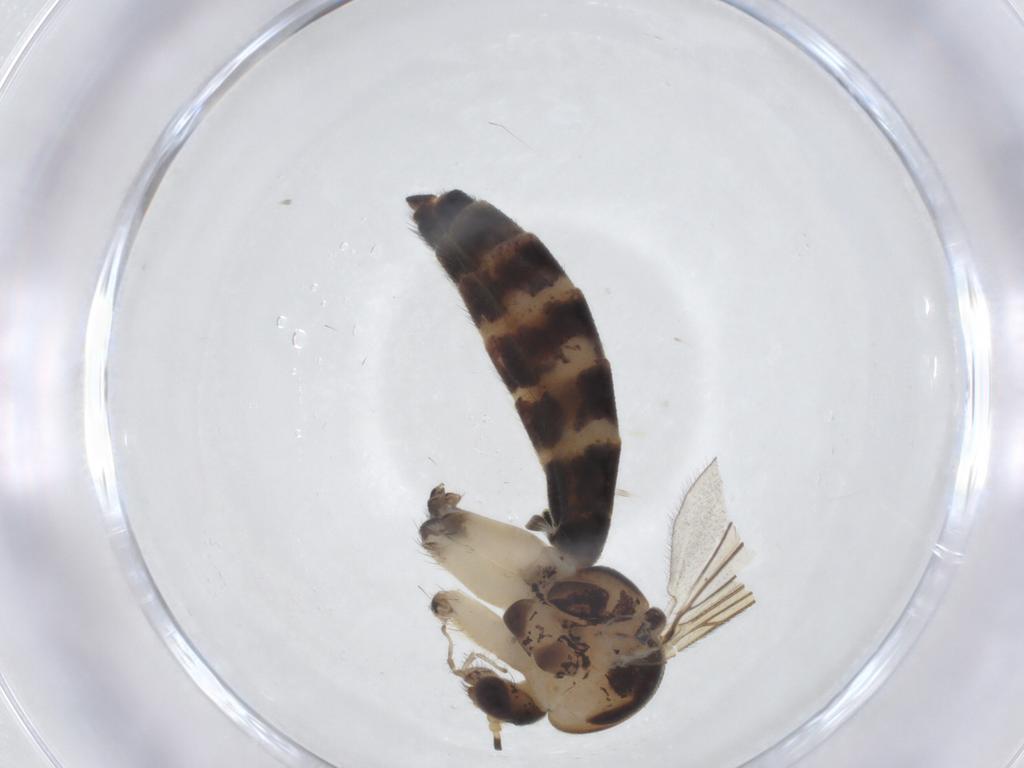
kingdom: Animalia
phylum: Arthropoda
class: Insecta
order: Diptera
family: Mycetophilidae
